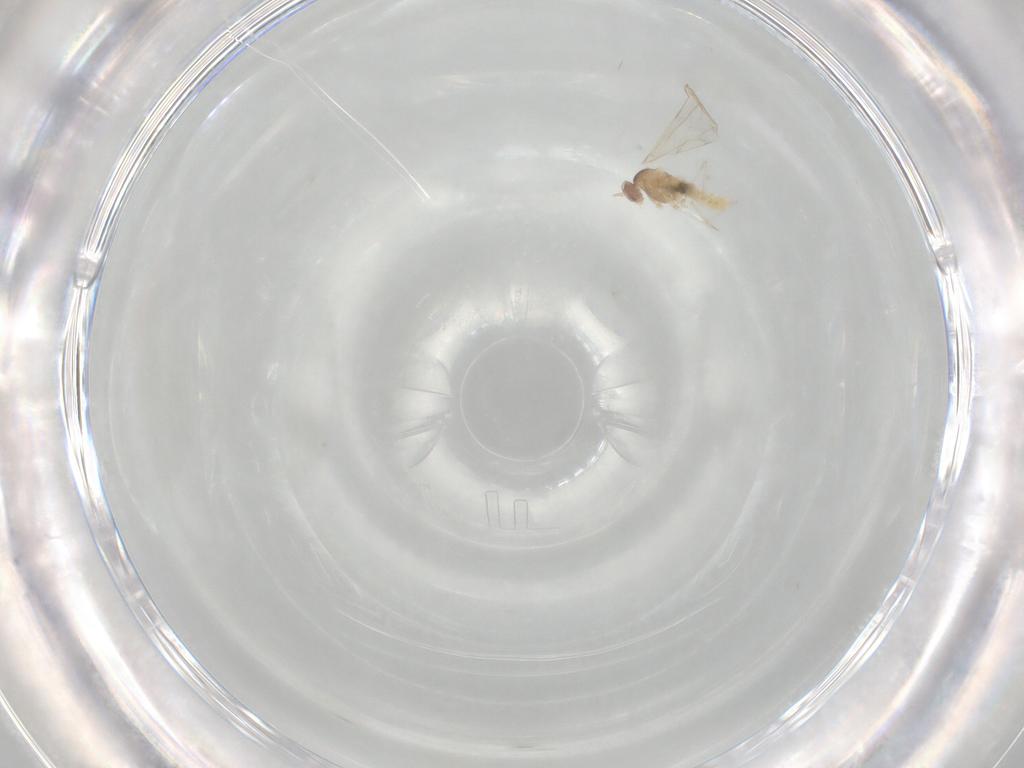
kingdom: Animalia
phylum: Arthropoda
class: Insecta
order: Diptera
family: Cecidomyiidae
